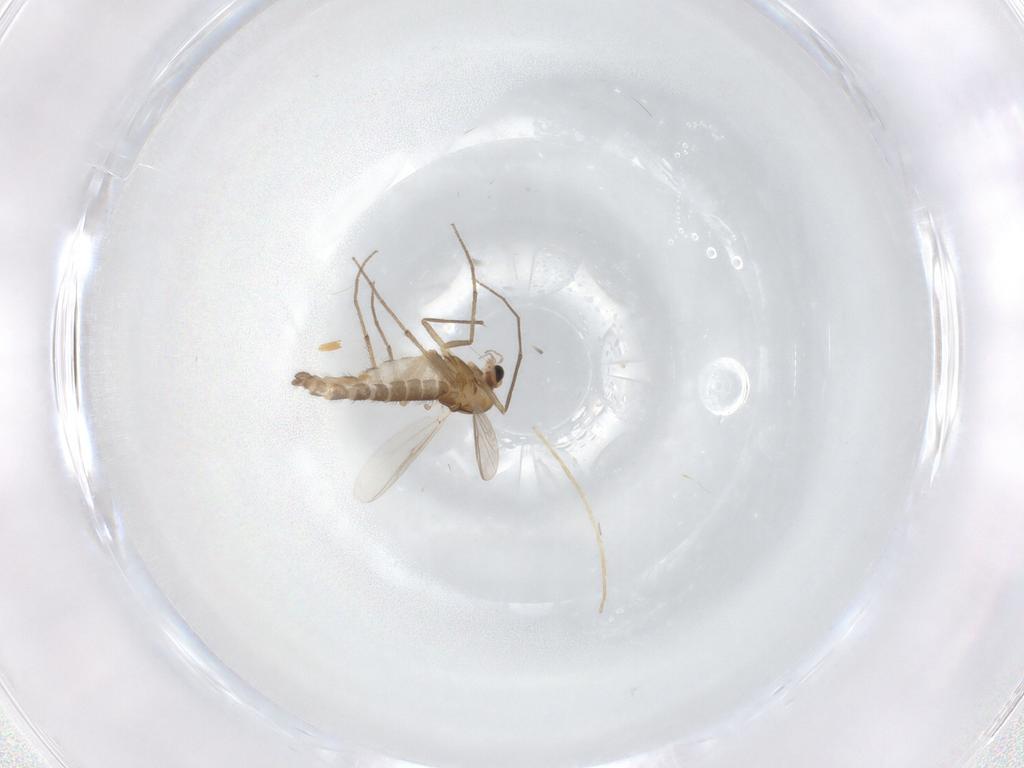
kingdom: Animalia
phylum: Arthropoda
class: Insecta
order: Diptera
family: Chironomidae
